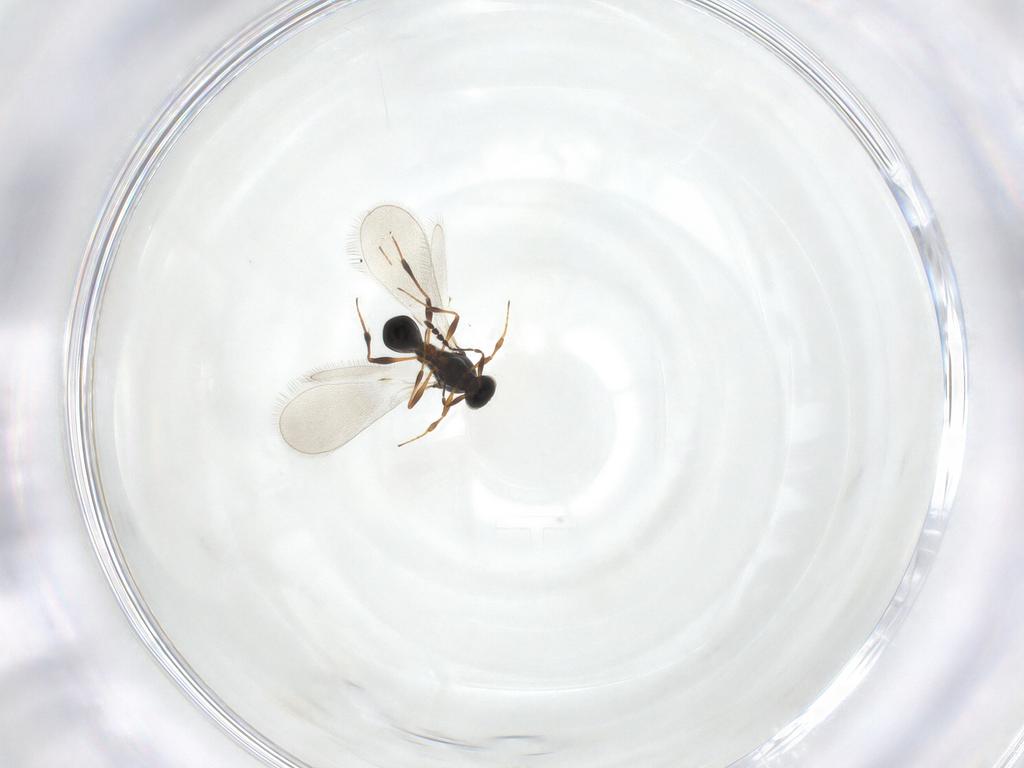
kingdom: Animalia
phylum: Arthropoda
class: Insecta
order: Hymenoptera
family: Platygastridae
